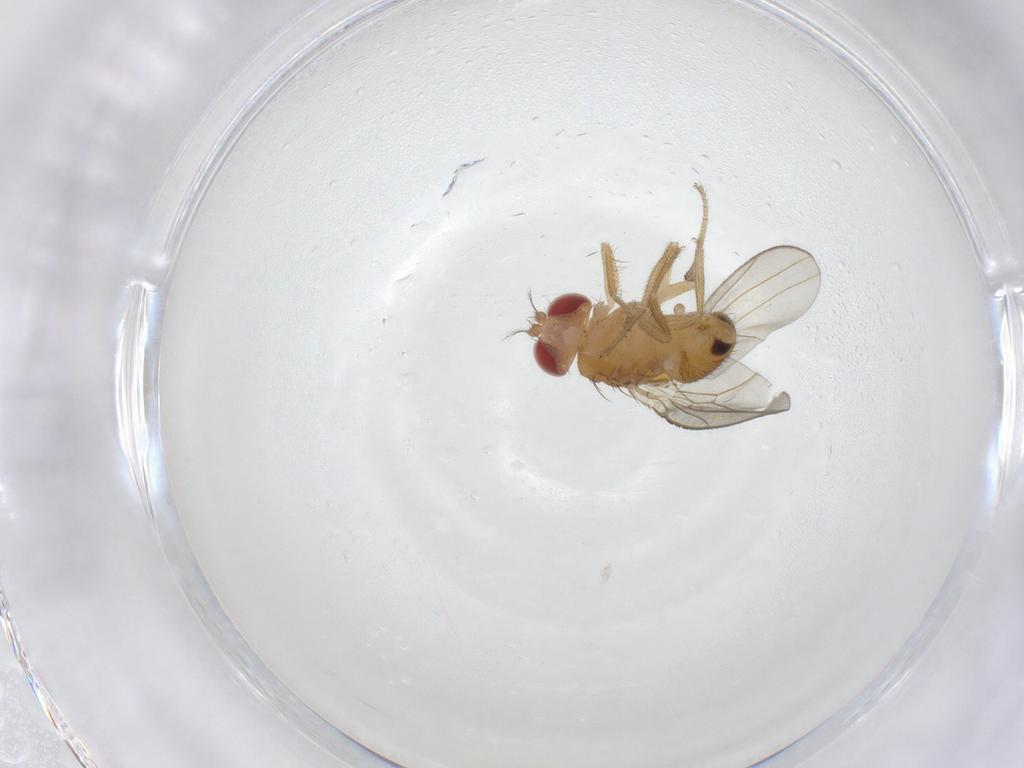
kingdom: Animalia
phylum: Arthropoda
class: Insecta
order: Diptera
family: Drosophilidae
